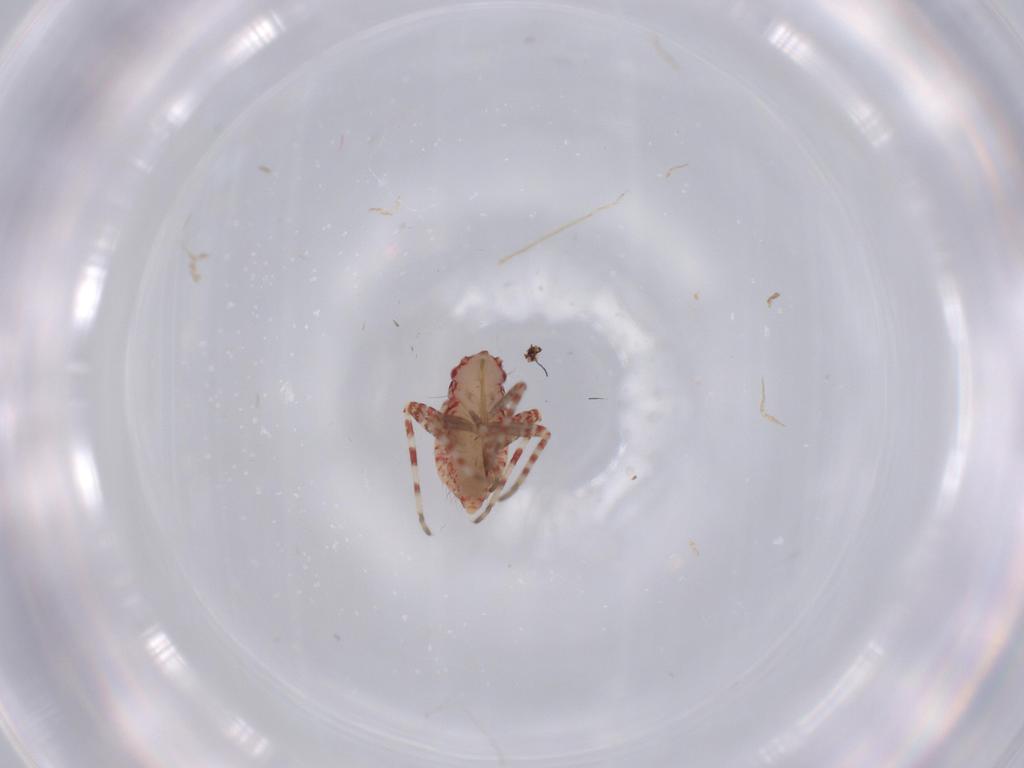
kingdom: Animalia
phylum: Arthropoda
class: Insecta
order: Hemiptera
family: Miridae
